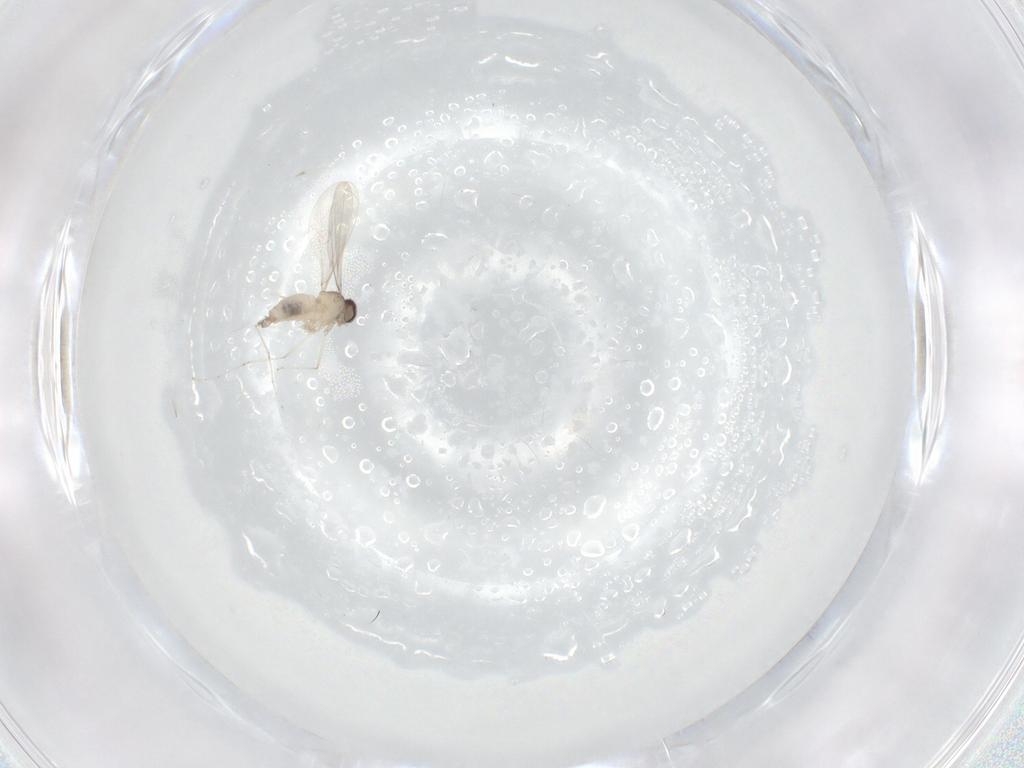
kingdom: Animalia
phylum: Arthropoda
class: Insecta
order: Diptera
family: Cecidomyiidae
